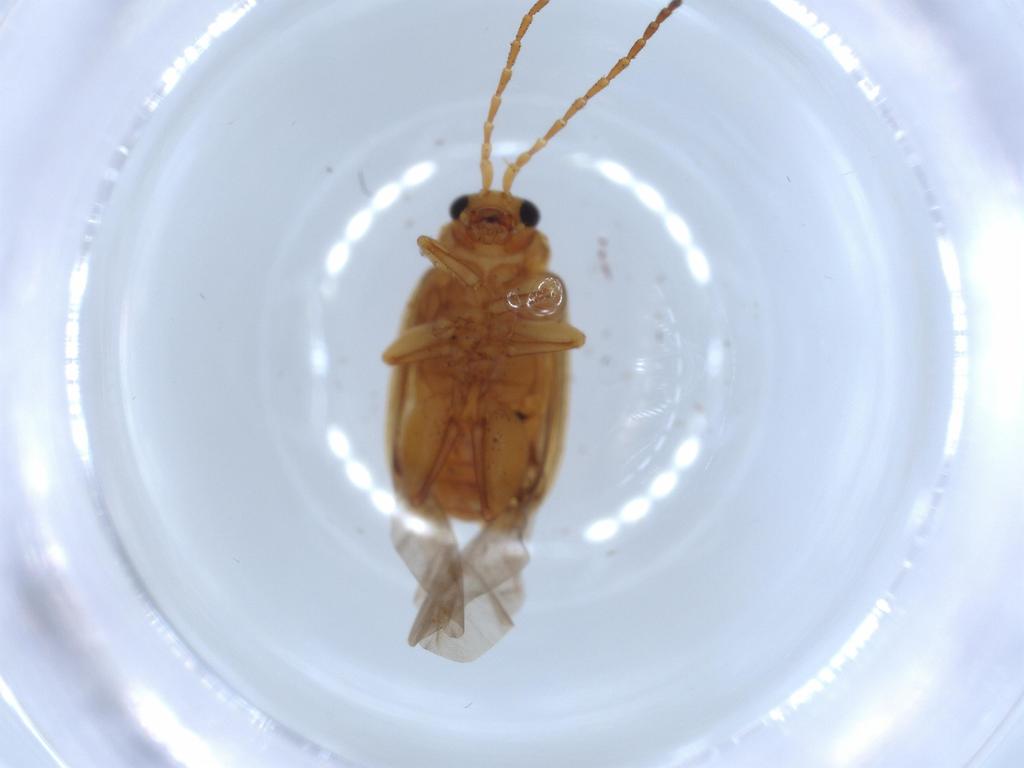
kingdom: Animalia
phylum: Arthropoda
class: Insecta
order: Coleoptera
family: Chrysomelidae
